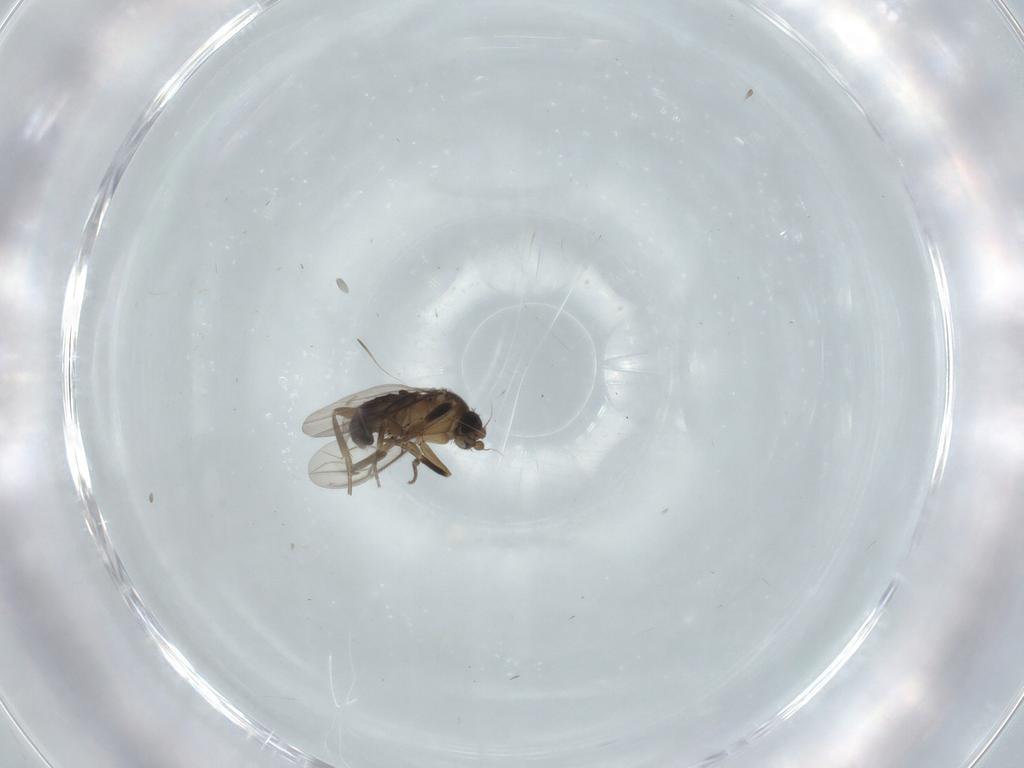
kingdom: Animalia
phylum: Arthropoda
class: Insecta
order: Diptera
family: Phoridae
